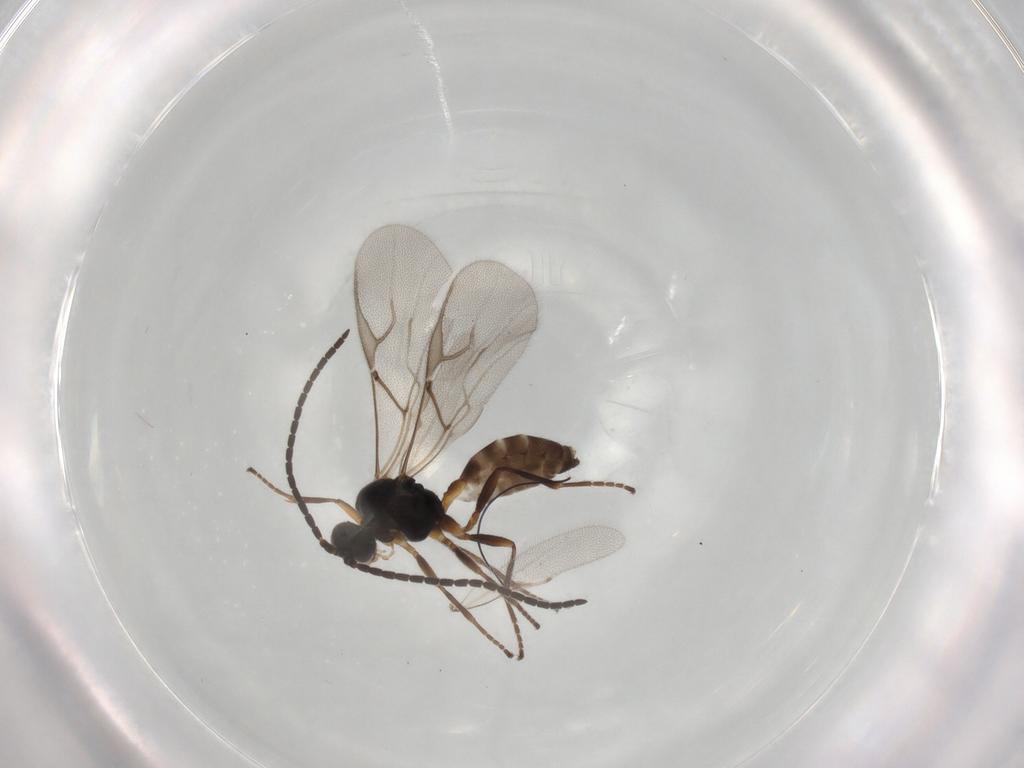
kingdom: Animalia
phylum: Arthropoda
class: Insecta
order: Hymenoptera
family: Braconidae
